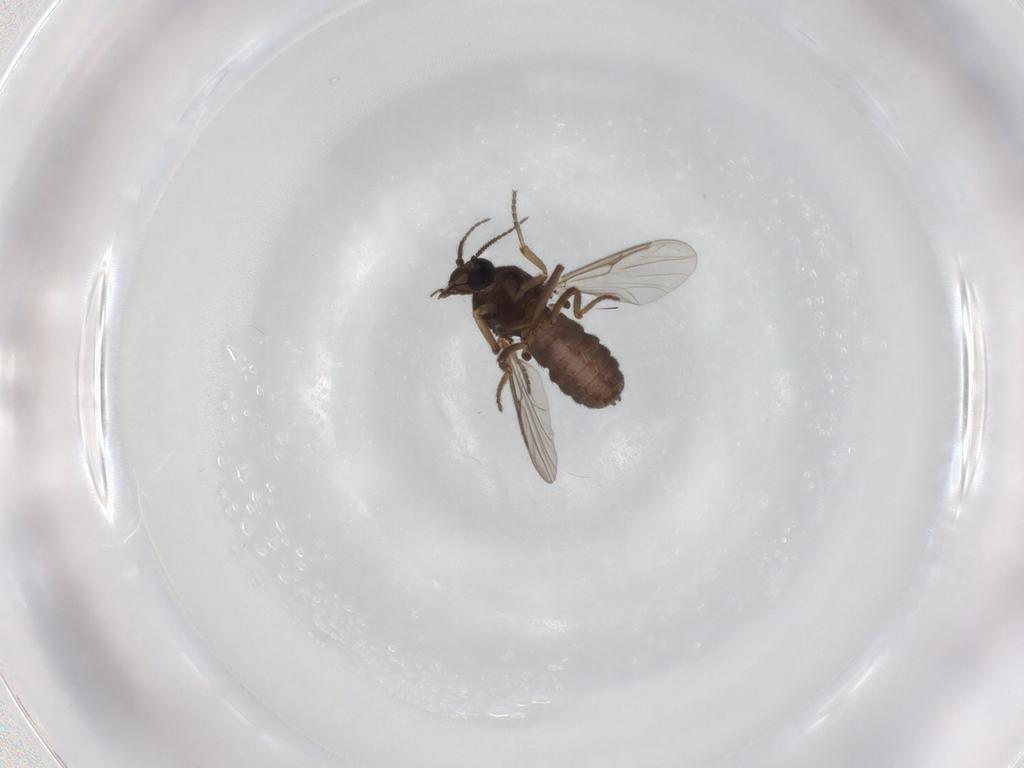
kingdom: Animalia
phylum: Arthropoda
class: Insecta
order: Diptera
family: Ceratopogonidae
